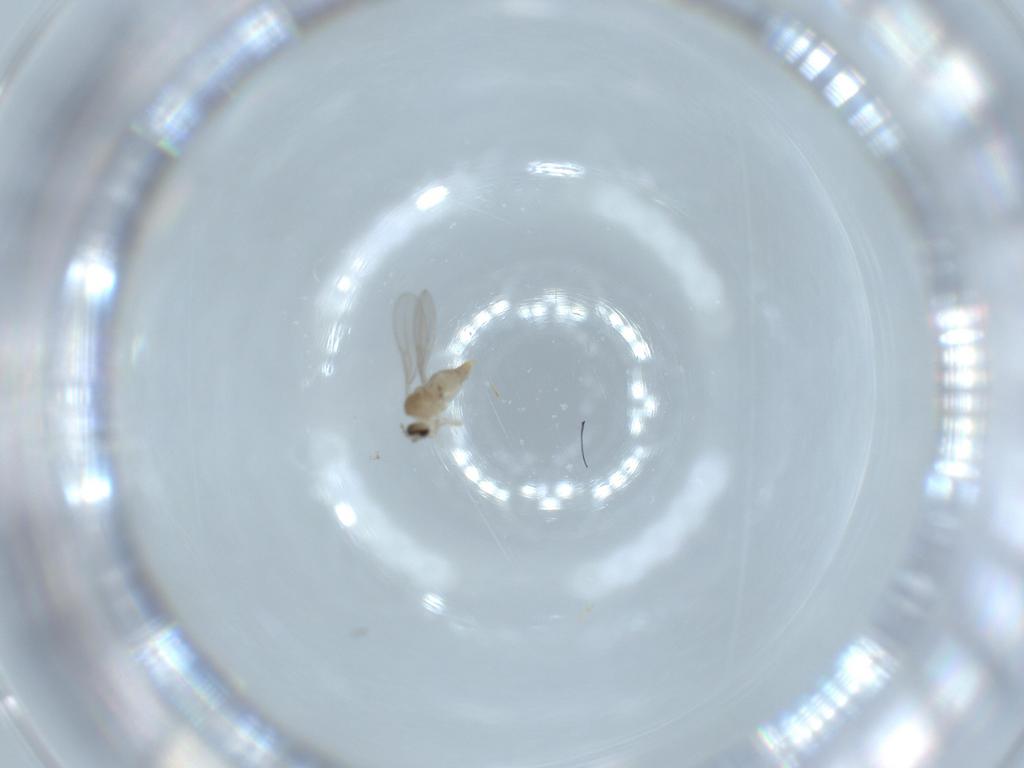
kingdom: Animalia
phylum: Arthropoda
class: Insecta
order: Diptera
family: Cecidomyiidae
